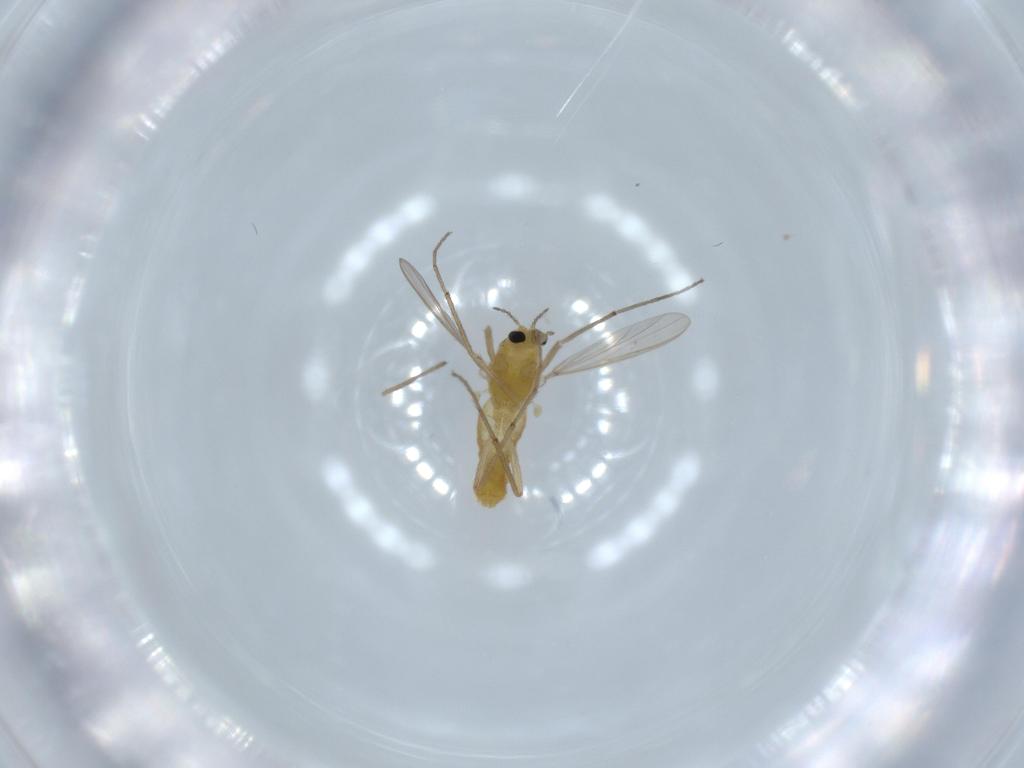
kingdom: Animalia
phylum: Arthropoda
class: Insecta
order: Diptera
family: Chironomidae
